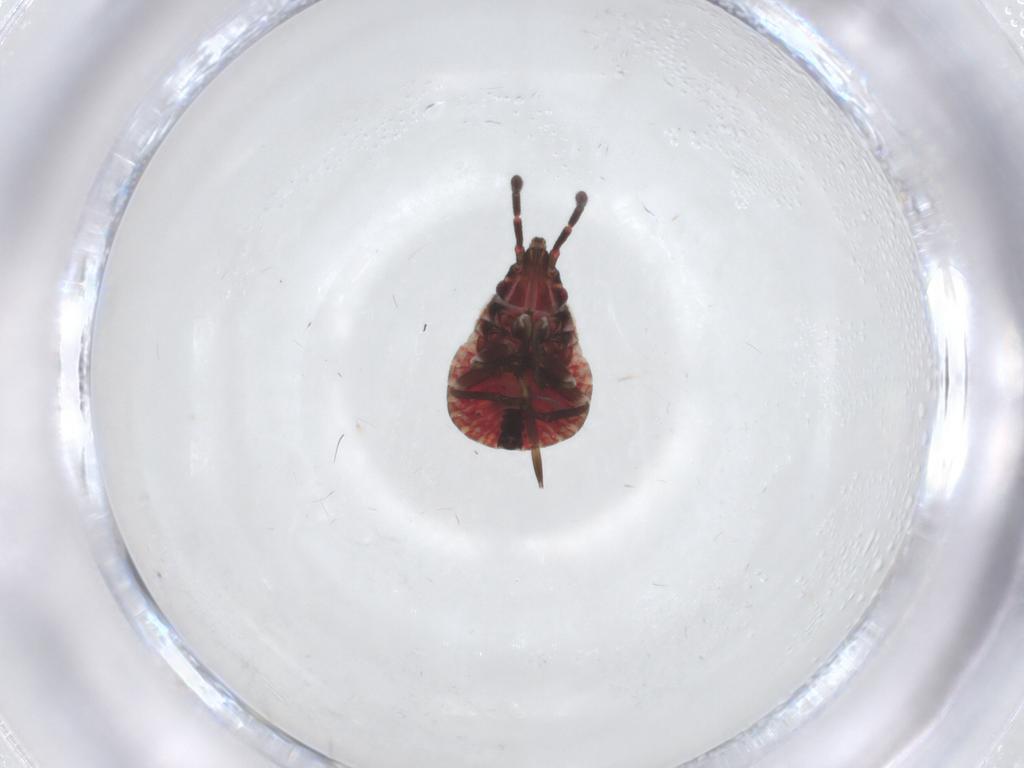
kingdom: Animalia
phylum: Arthropoda
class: Insecta
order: Hemiptera
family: Rhyparochromidae
